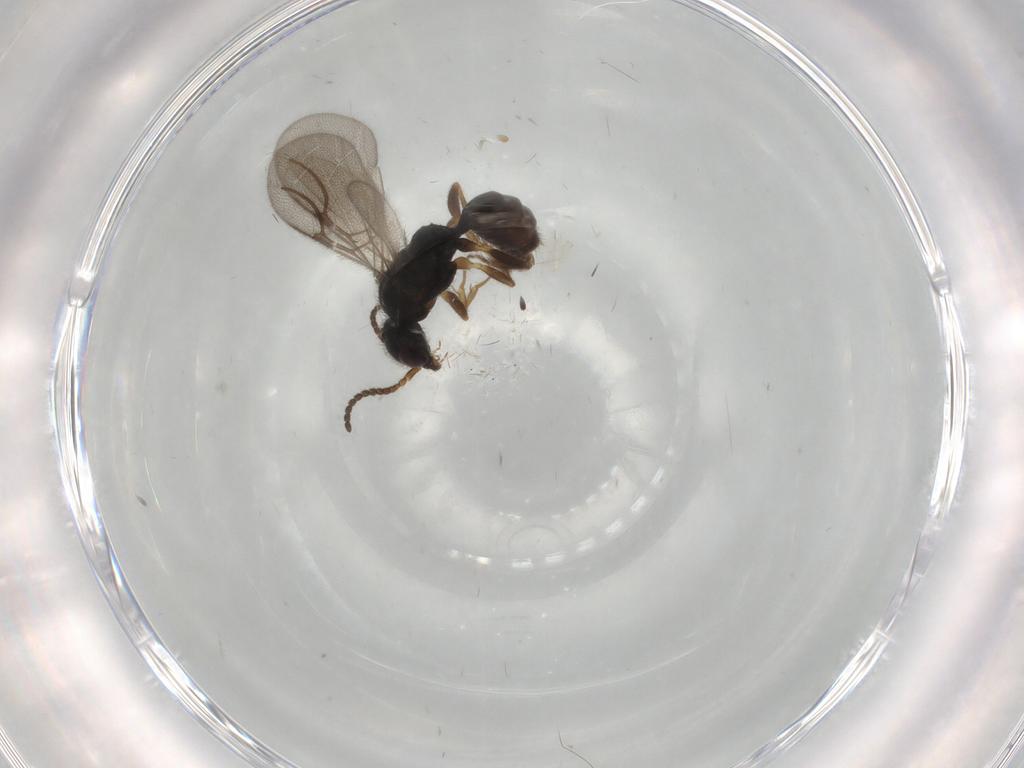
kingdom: Animalia
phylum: Arthropoda
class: Insecta
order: Hymenoptera
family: Bethylidae
